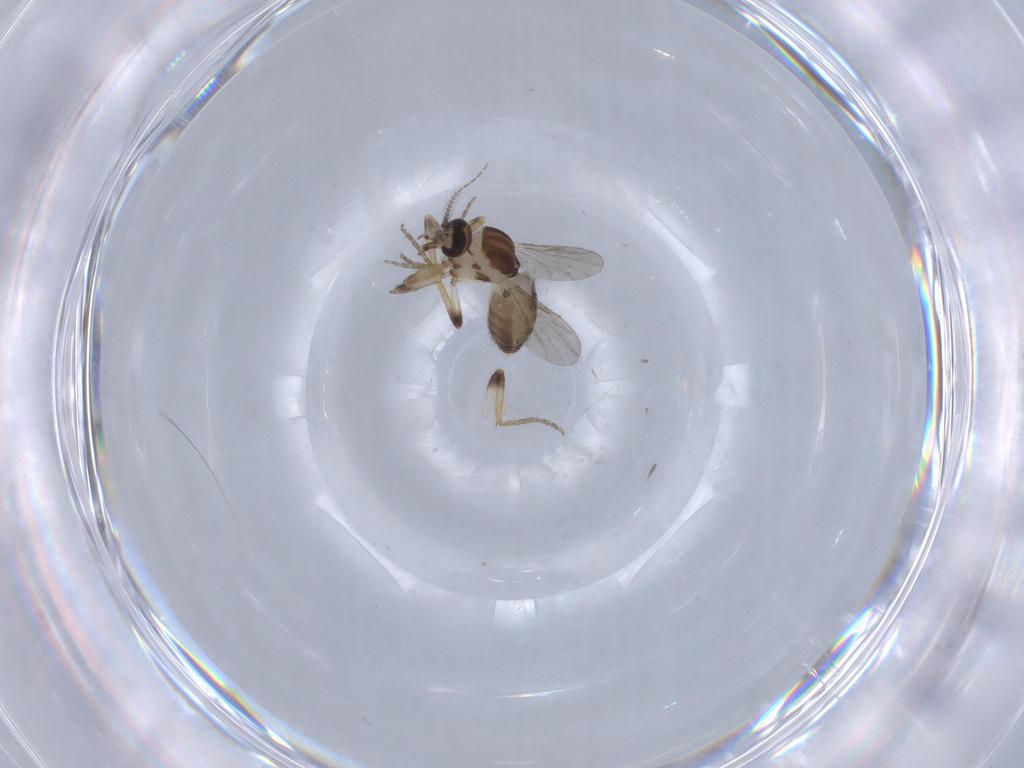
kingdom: Animalia
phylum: Arthropoda
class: Insecta
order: Diptera
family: Ceratopogonidae
